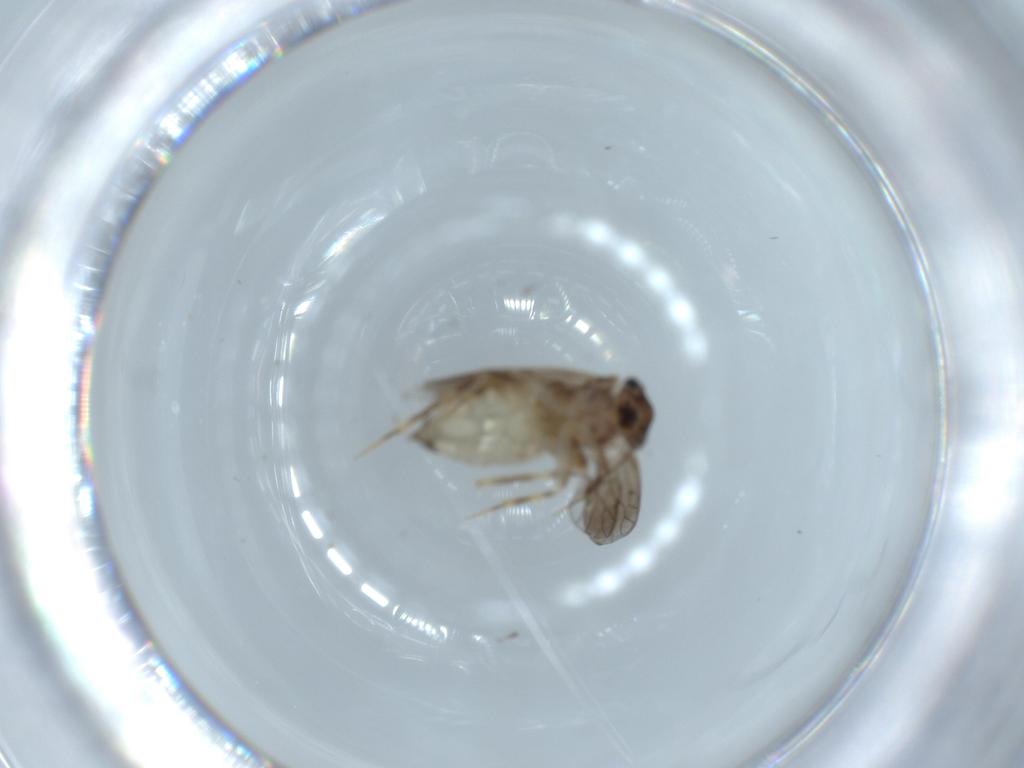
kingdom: Animalia
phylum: Arthropoda
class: Insecta
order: Psocodea
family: Lepidopsocidae
